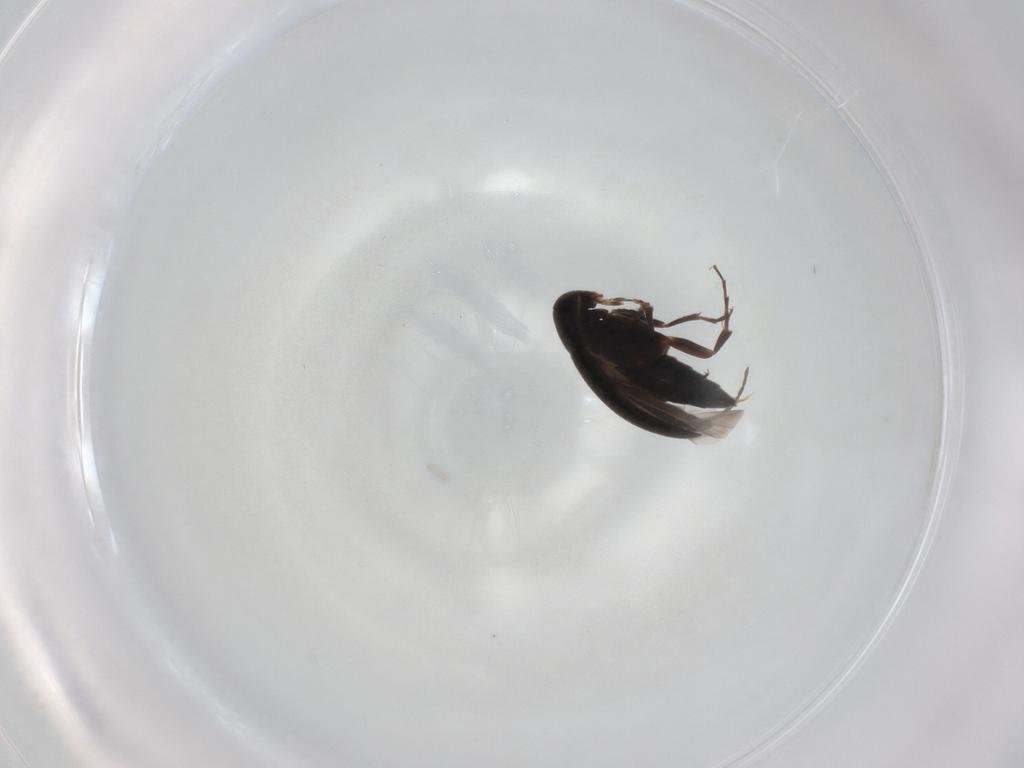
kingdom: Animalia
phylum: Arthropoda
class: Insecta
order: Coleoptera
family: Scraptiidae
